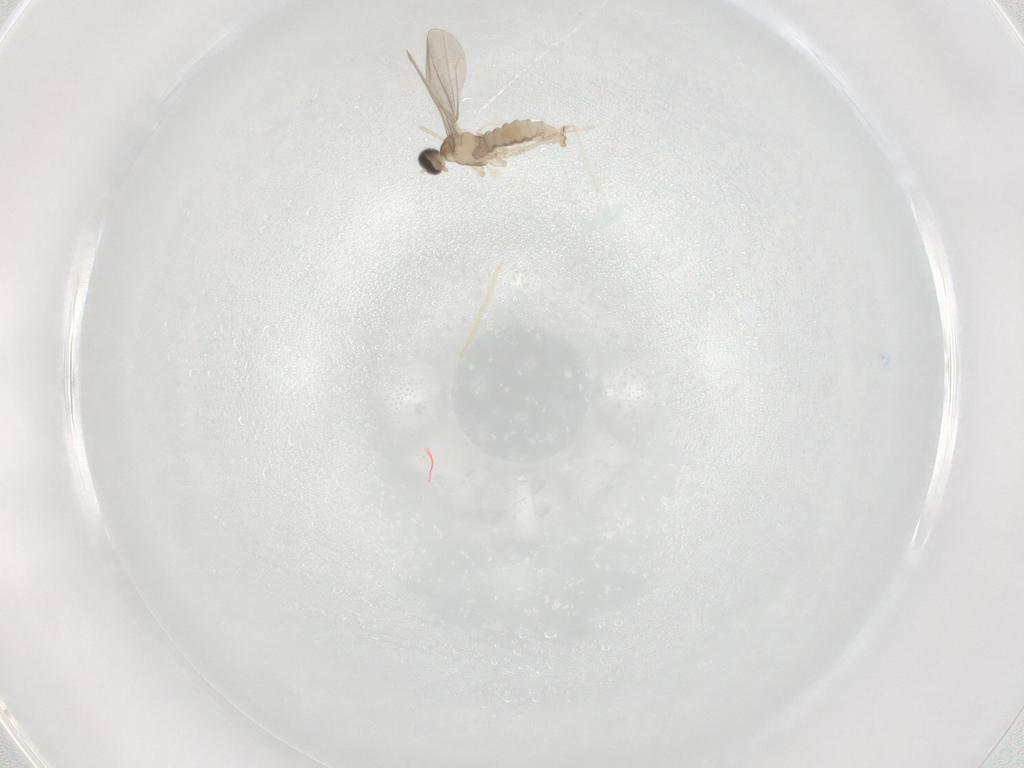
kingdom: Animalia
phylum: Arthropoda
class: Insecta
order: Diptera
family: Cecidomyiidae
